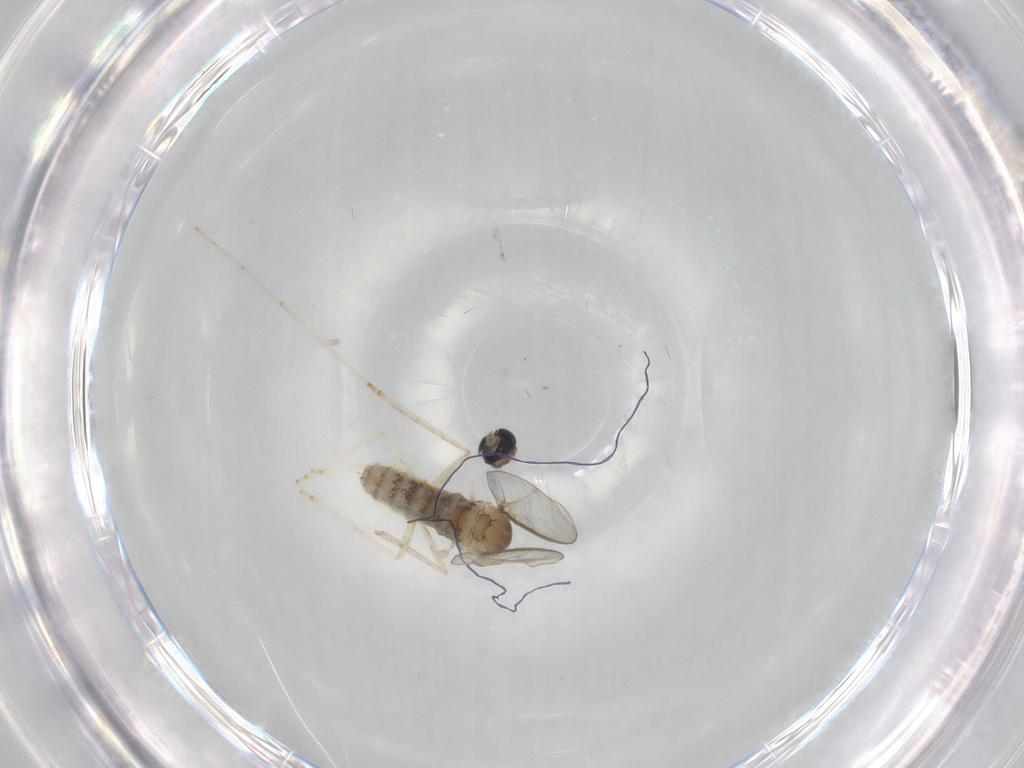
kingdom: Animalia
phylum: Arthropoda
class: Insecta
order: Diptera
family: Cecidomyiidae
